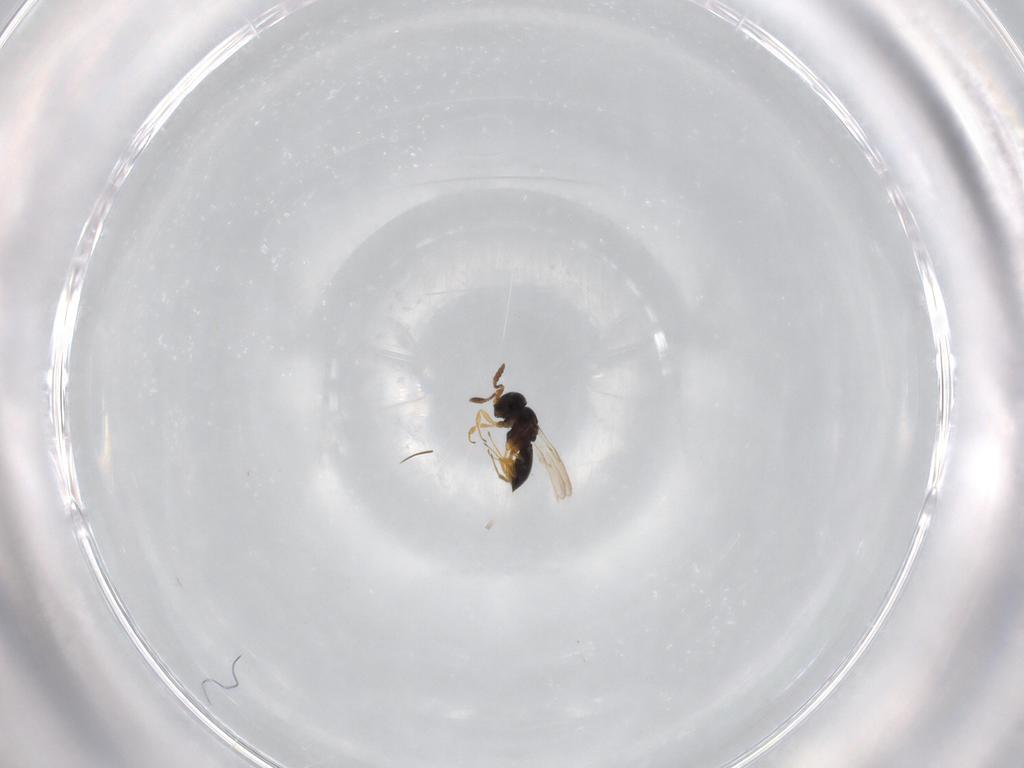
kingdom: Animalia
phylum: Arthropoda
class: Insecta
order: Hymenoptera
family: Scelionidae
